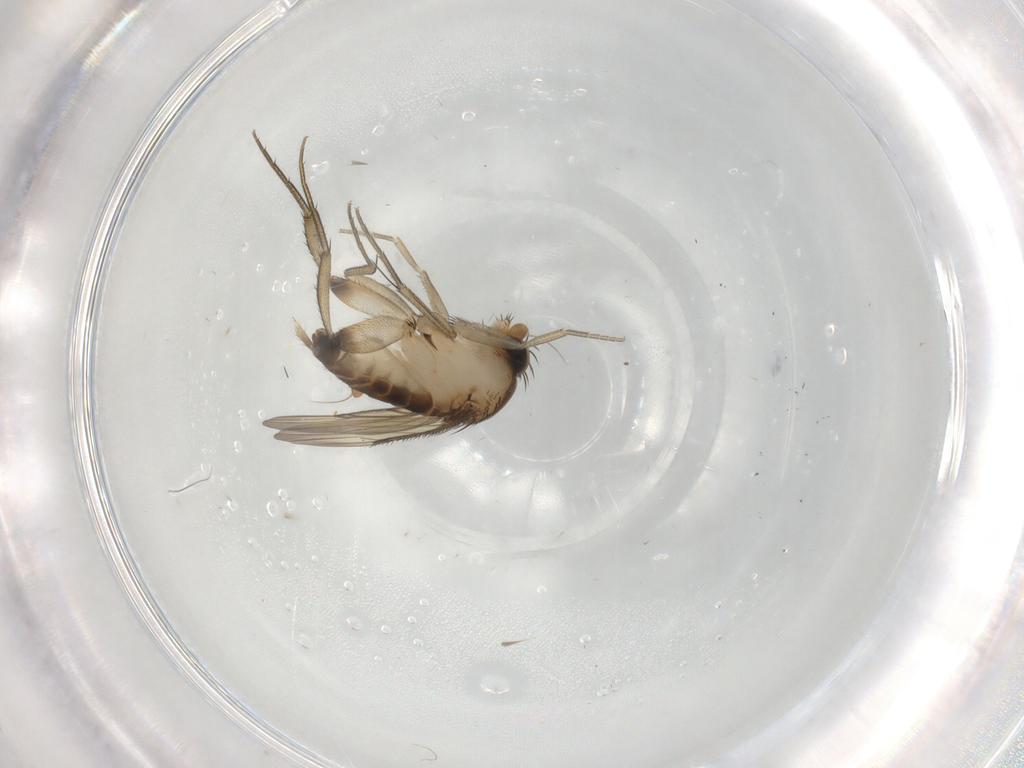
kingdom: Animalia
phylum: Arthropoda
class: Insecta
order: Diptera
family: Phoridae
